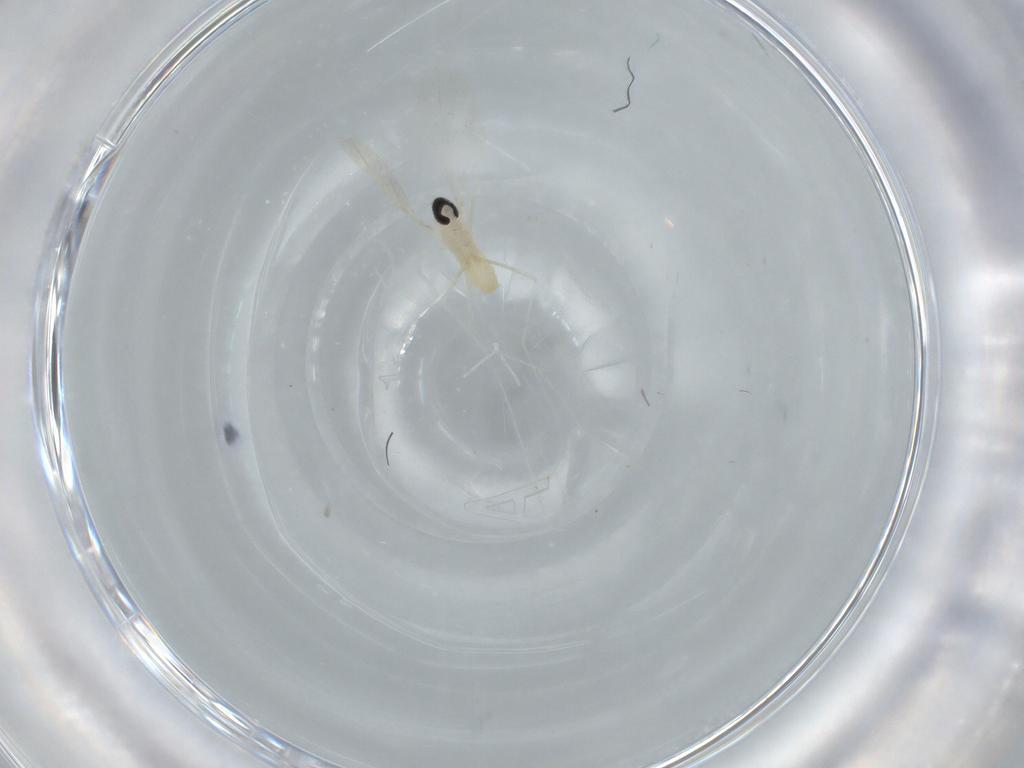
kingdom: Animalia
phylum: Arthropoda
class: Insecta
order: Diptera
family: Cecidomyiidae
